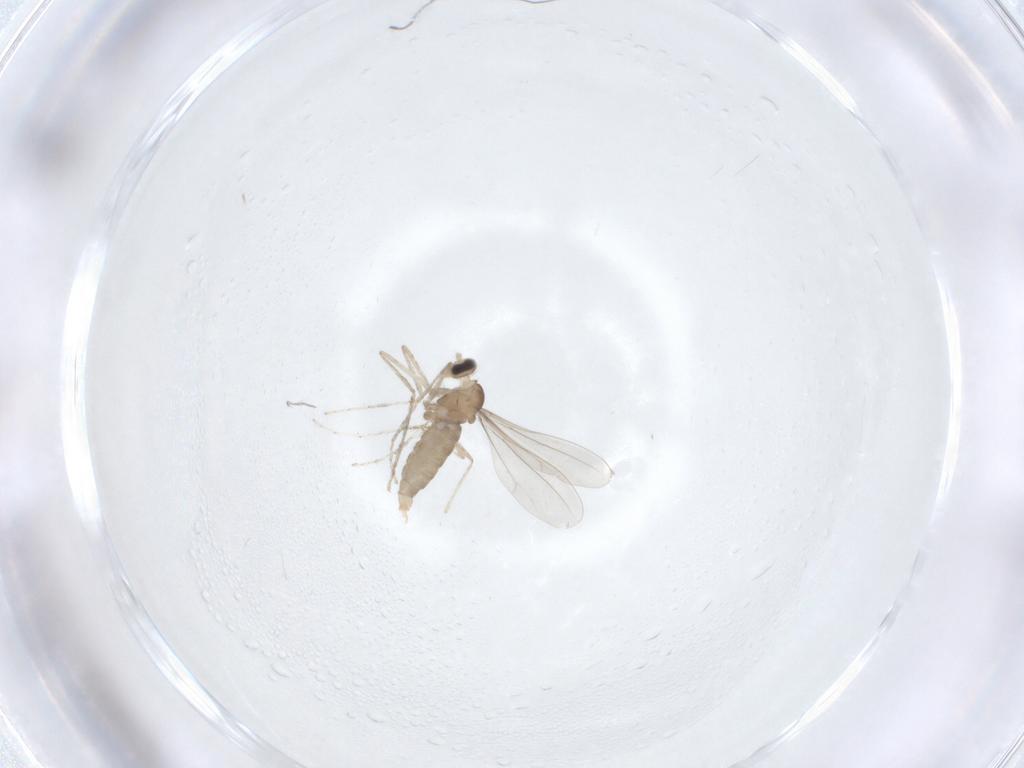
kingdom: Animalia
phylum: Arthropoda
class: Insecta
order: Diptera
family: Cecidomyiidae
